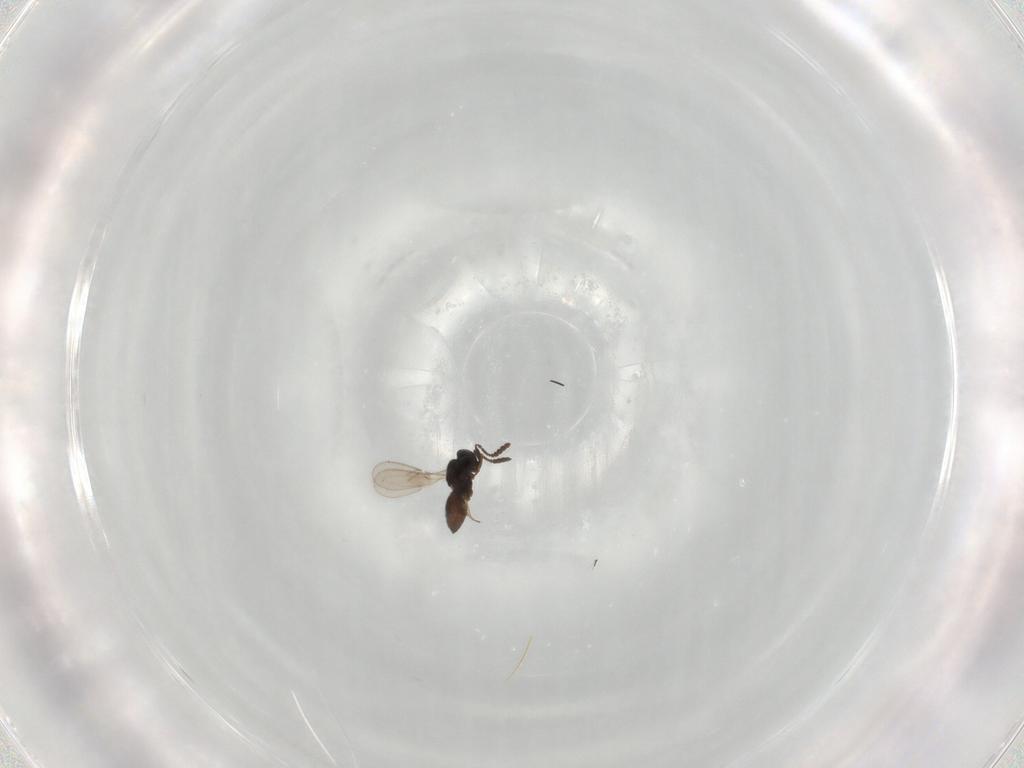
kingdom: Animalia
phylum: Arthropoda
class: Insecta
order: Hymenoptera
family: Scelionidae
